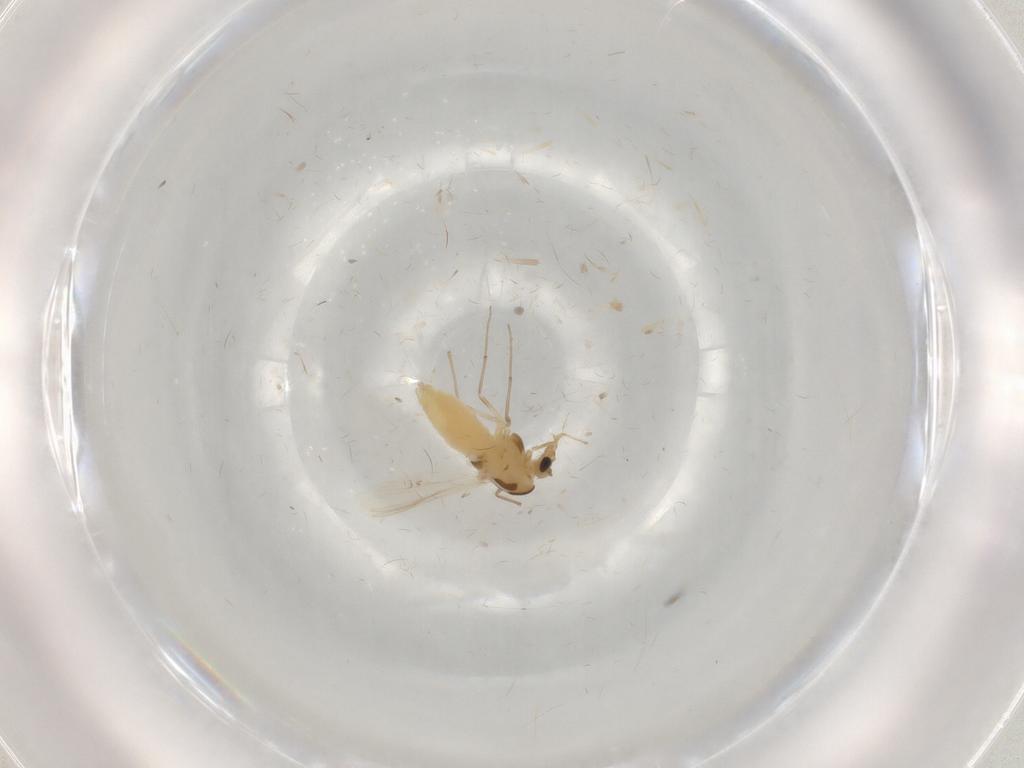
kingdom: Animalia
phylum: Arthropoda
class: Insecta
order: Diptera
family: Chironomidae
